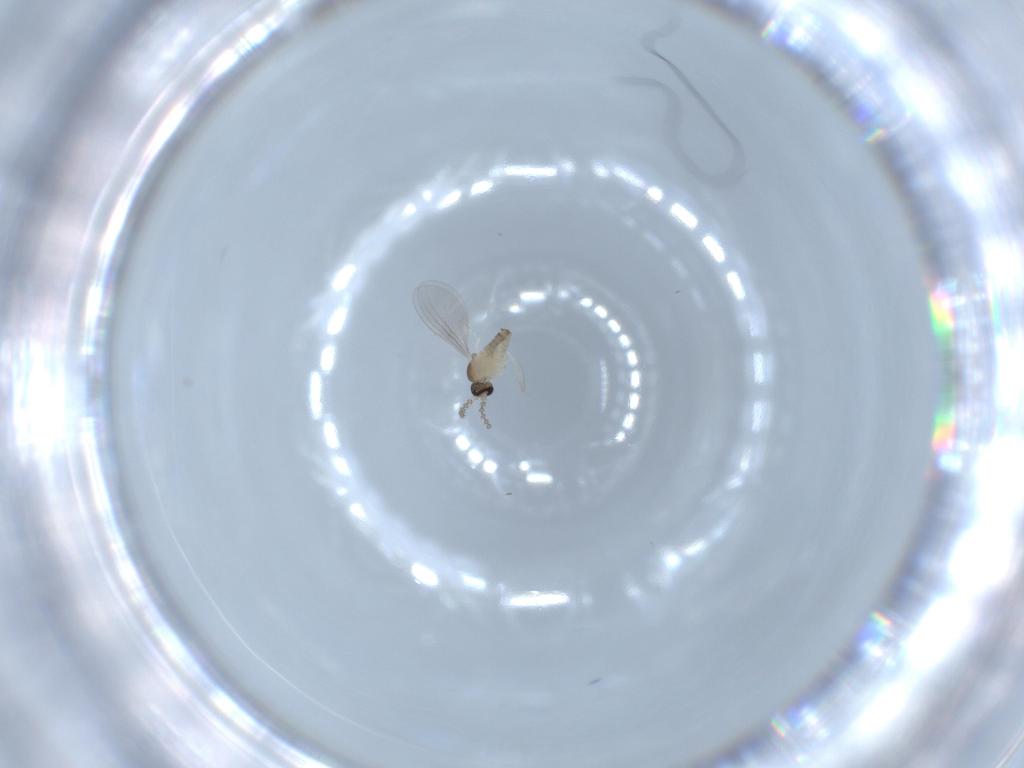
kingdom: Animalia
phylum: Arthropoda
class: Insecta
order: Diptera
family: Cecidomyiidae
